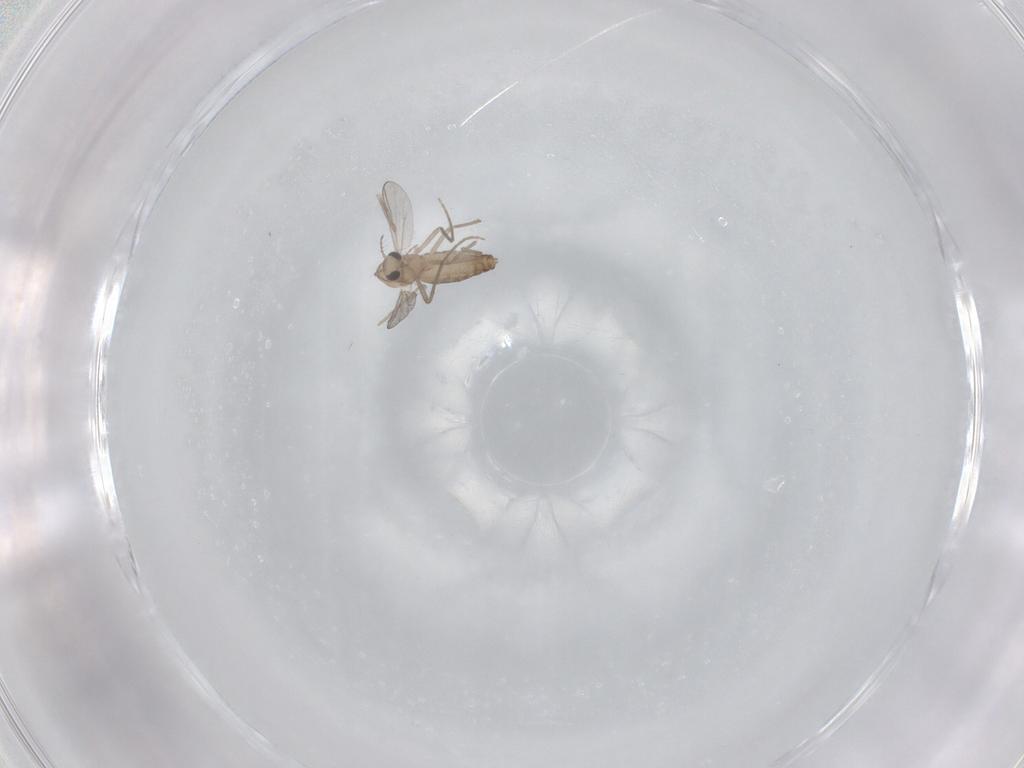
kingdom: Animalia
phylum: Arthropoda
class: Insecta
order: Diptera
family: Chironomidae
